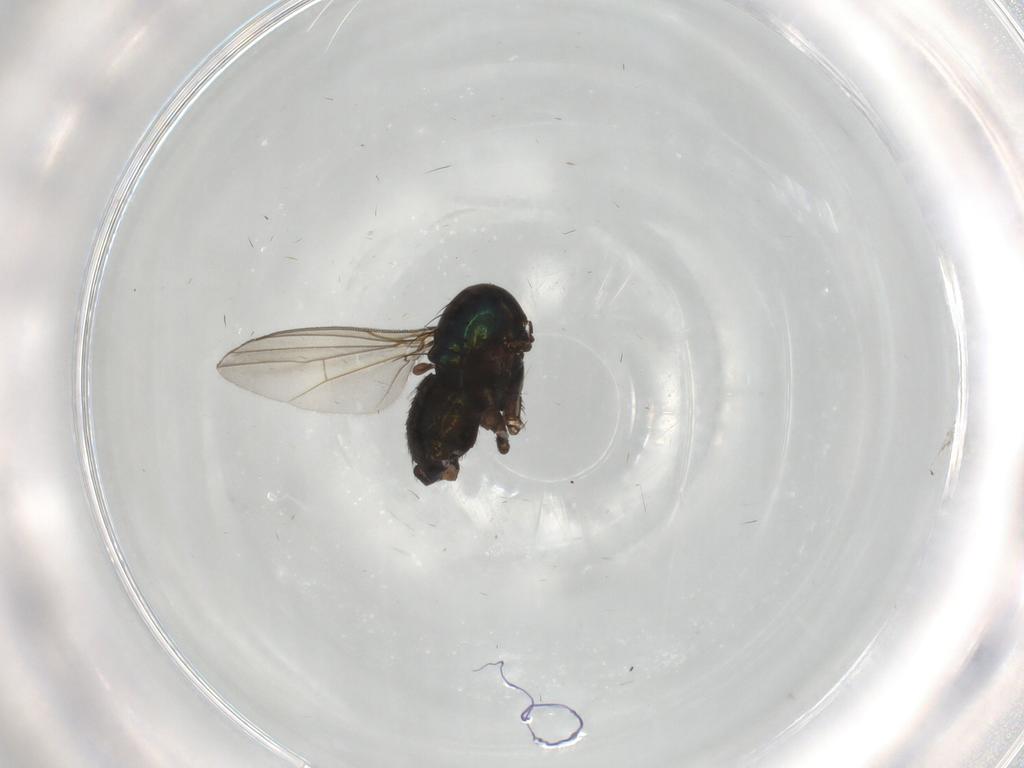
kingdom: Animalia
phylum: Arthropoda
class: Insecta
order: Diptera
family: Dolichopodidae
